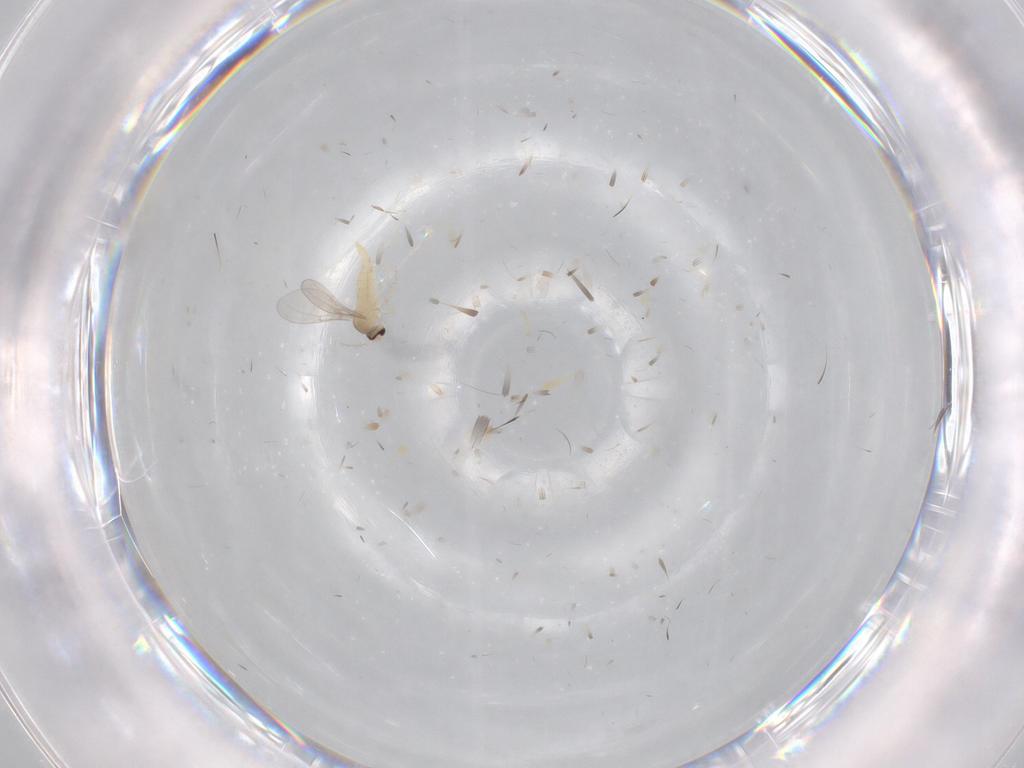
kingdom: Animalia
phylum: Arthropoda
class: Insecta
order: Diptera
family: Cecidomyiidae
